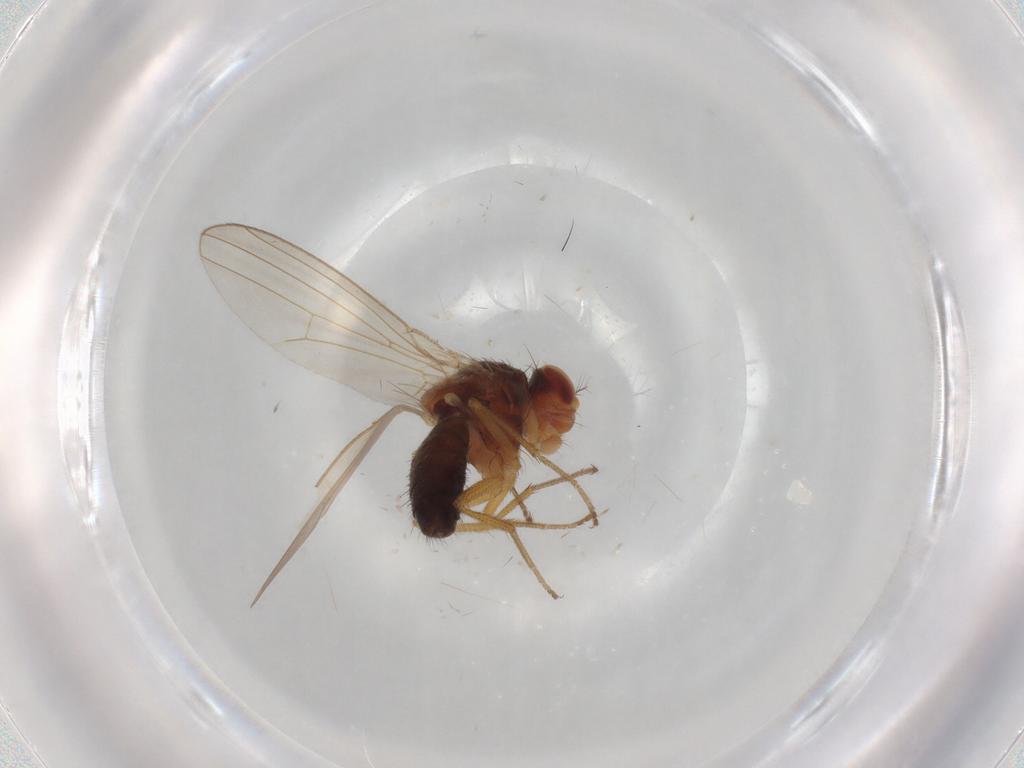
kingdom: Animalia
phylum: Arthropoda
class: Insecta
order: Diptera
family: Drosophilidae
